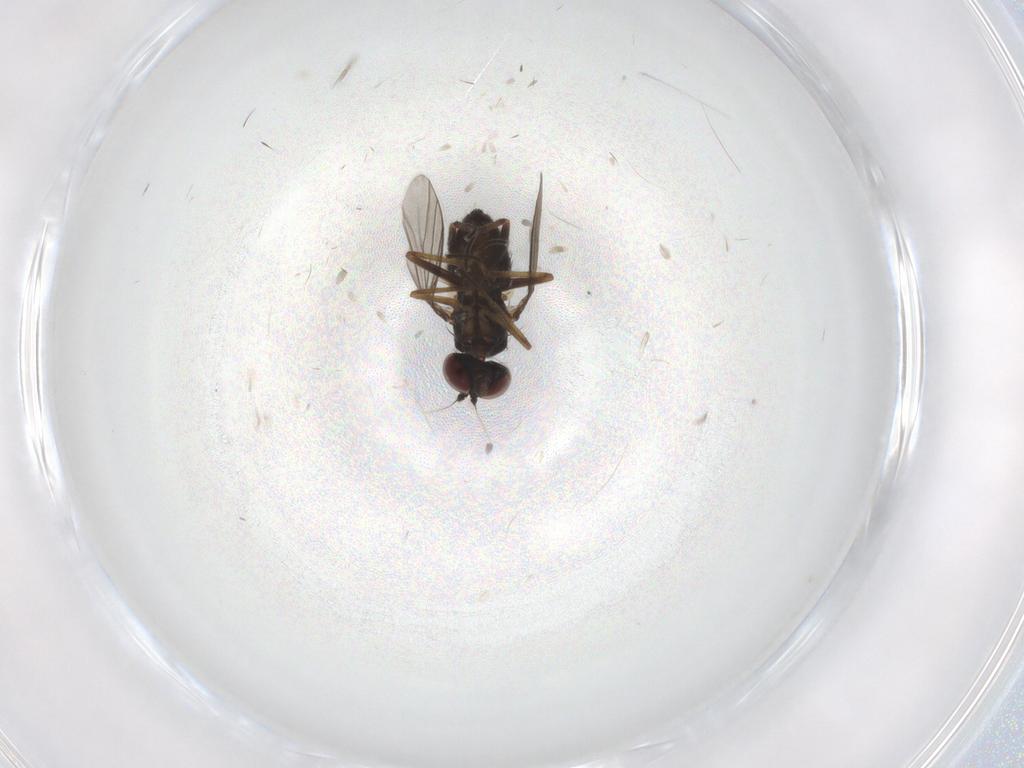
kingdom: Animalia
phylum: Arthropoda
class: Insecta
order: Diptera
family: Dolichopodidae
